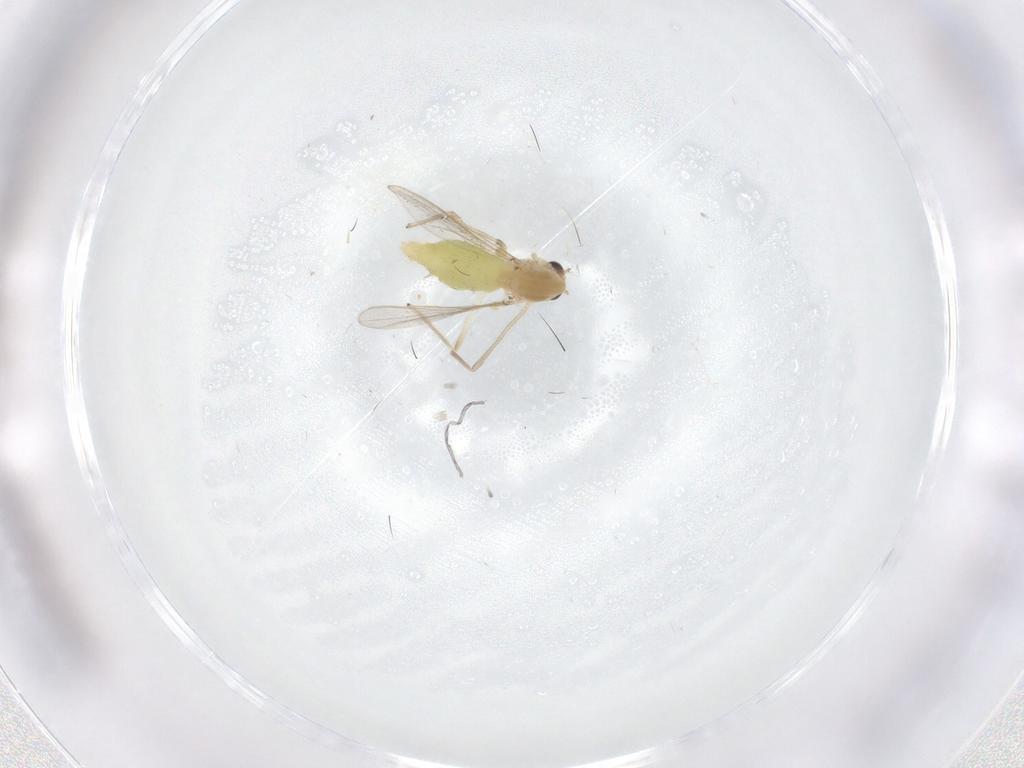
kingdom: Animalia
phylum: Arthropoda
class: Insecta
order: Diptera
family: Chironomidae
